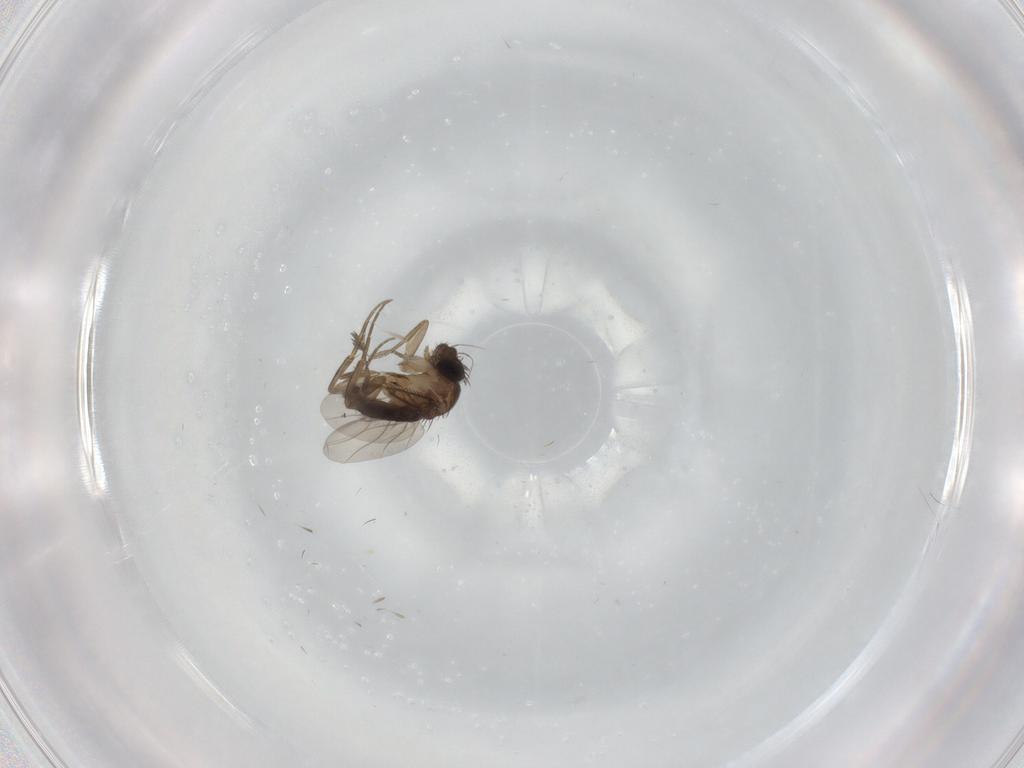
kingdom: Animalia
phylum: Arthropoda
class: Insecta
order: Diptera
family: Phoridae
